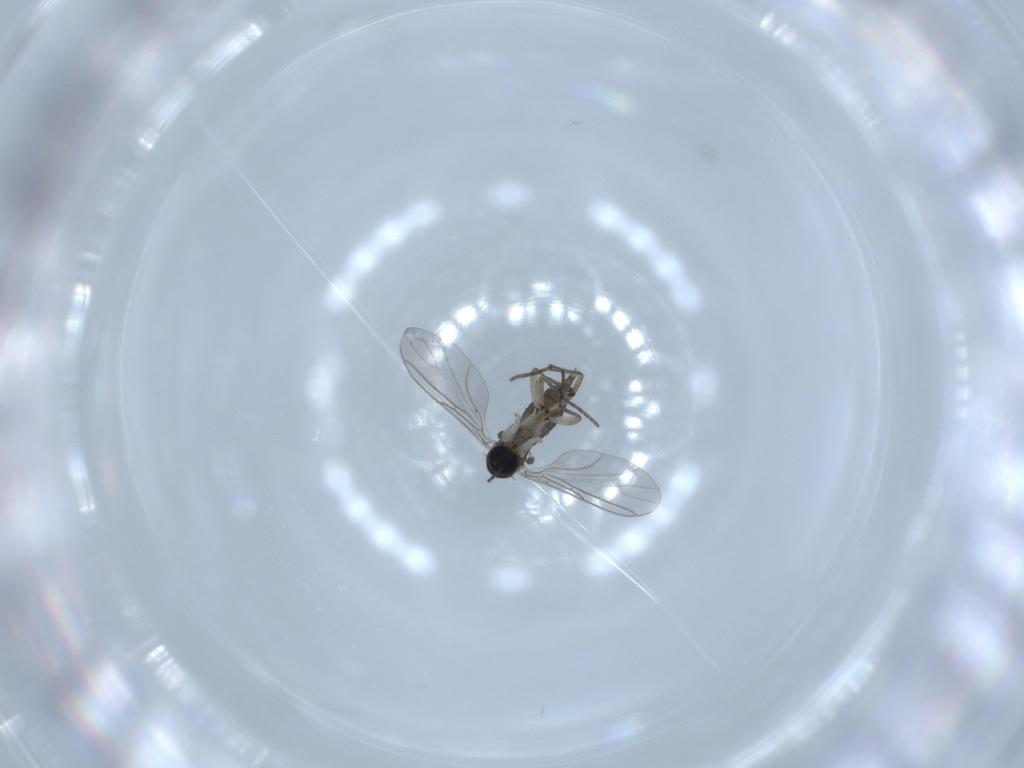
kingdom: Animalia
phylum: Arthropoda
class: Insecta
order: Diptera
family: Sciaridae
